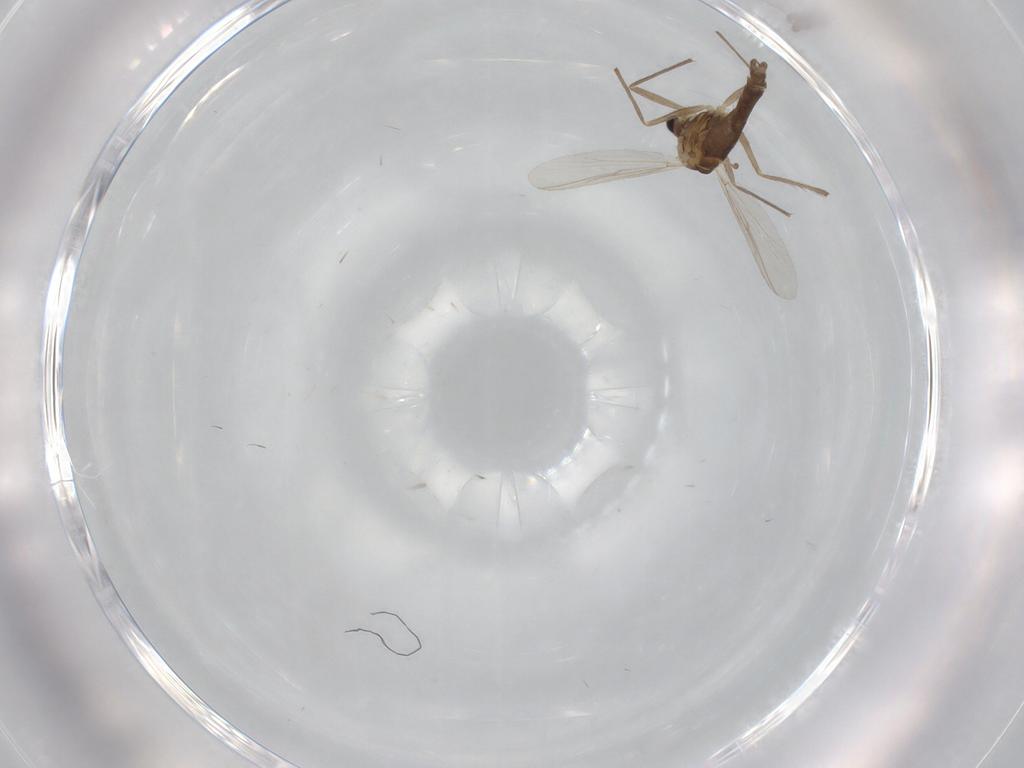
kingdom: Animalia
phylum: Arthropoda
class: Insecta
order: Diptera
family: Chironomidae
